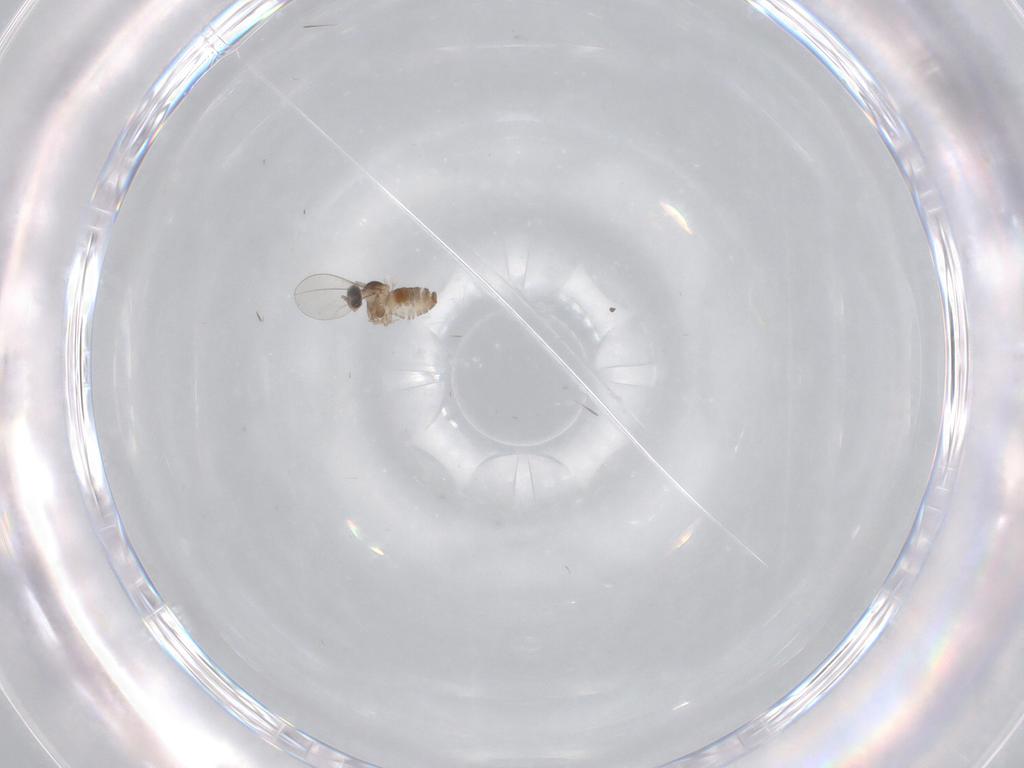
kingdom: Animalia
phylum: Arthropoda
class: Insecta
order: Diptera
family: Cecidomyiidae
